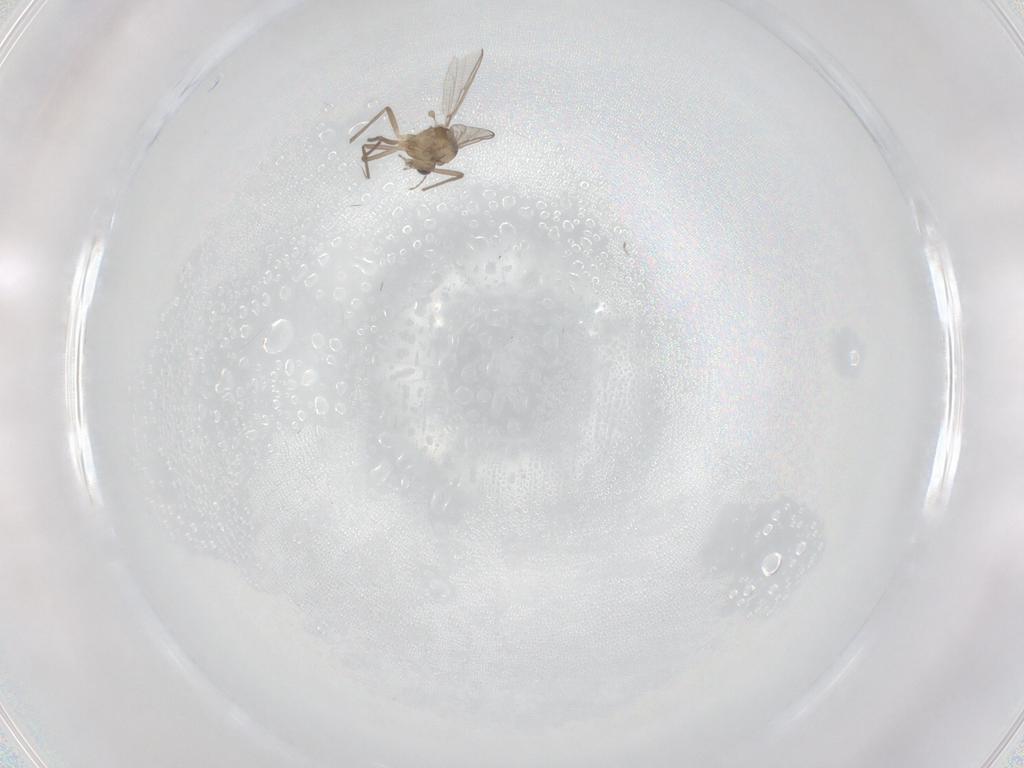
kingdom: Animalia
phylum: Arthropoda
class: Insecta
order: Diptera
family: Chironomidae
